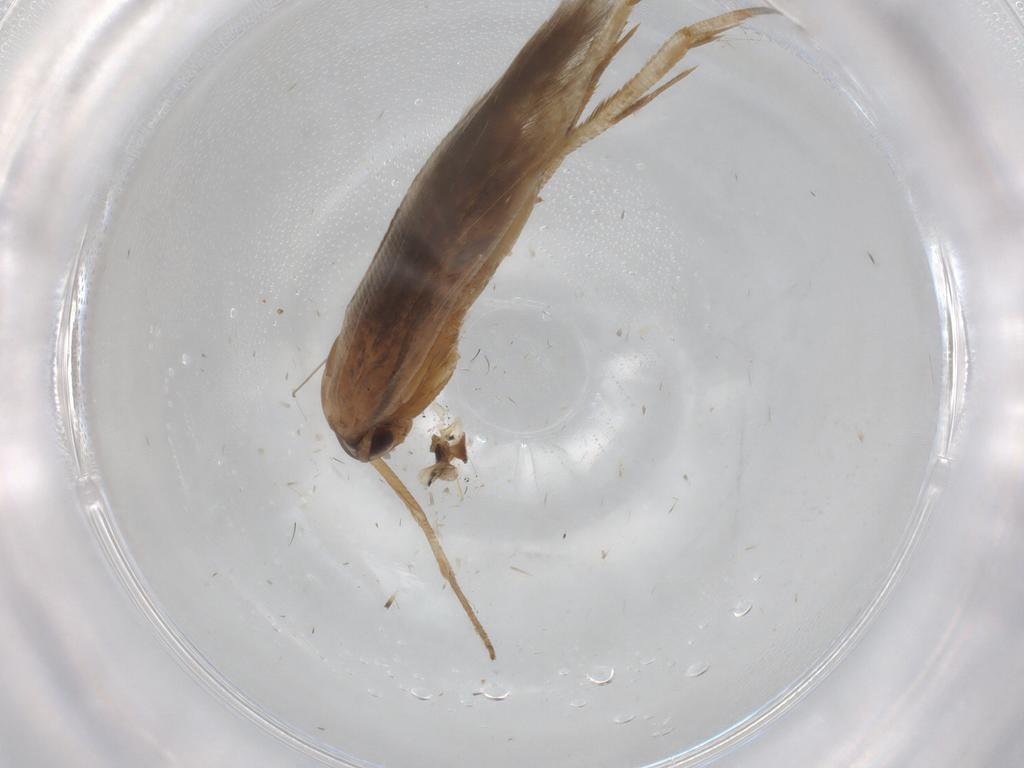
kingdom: Animalia
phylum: Arthropoda
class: Insecta
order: Lepidoptera
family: Cosmopterigidae
